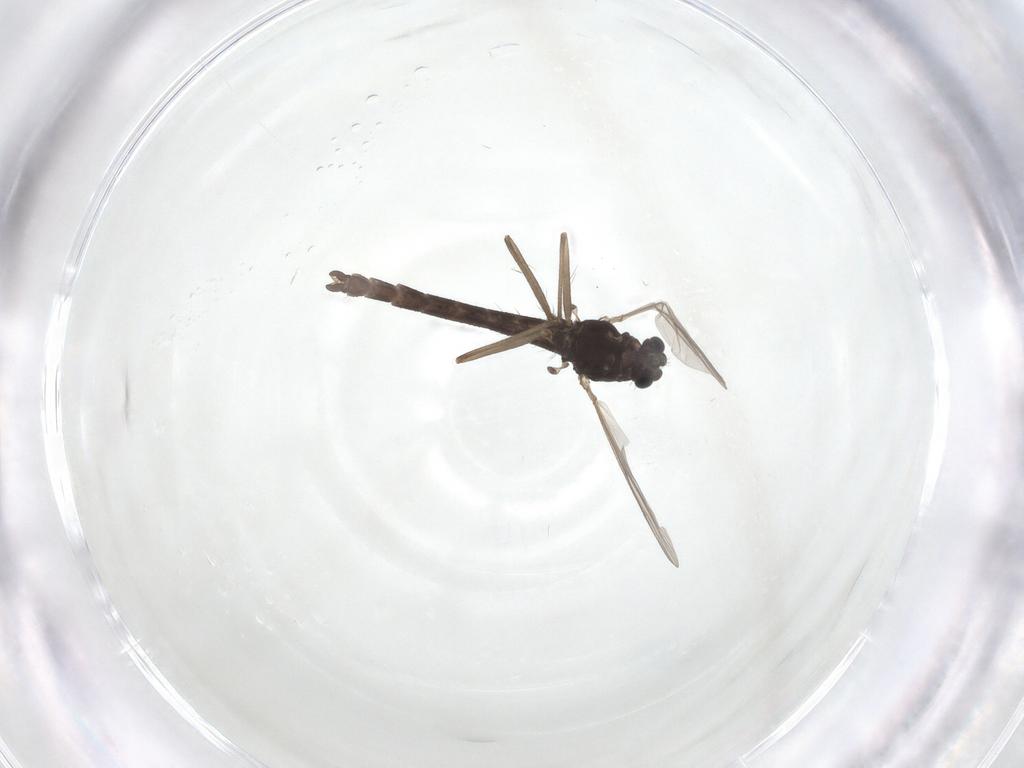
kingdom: Animalia
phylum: Arthropoda
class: Insecta
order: Diptera
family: Chironomidae
